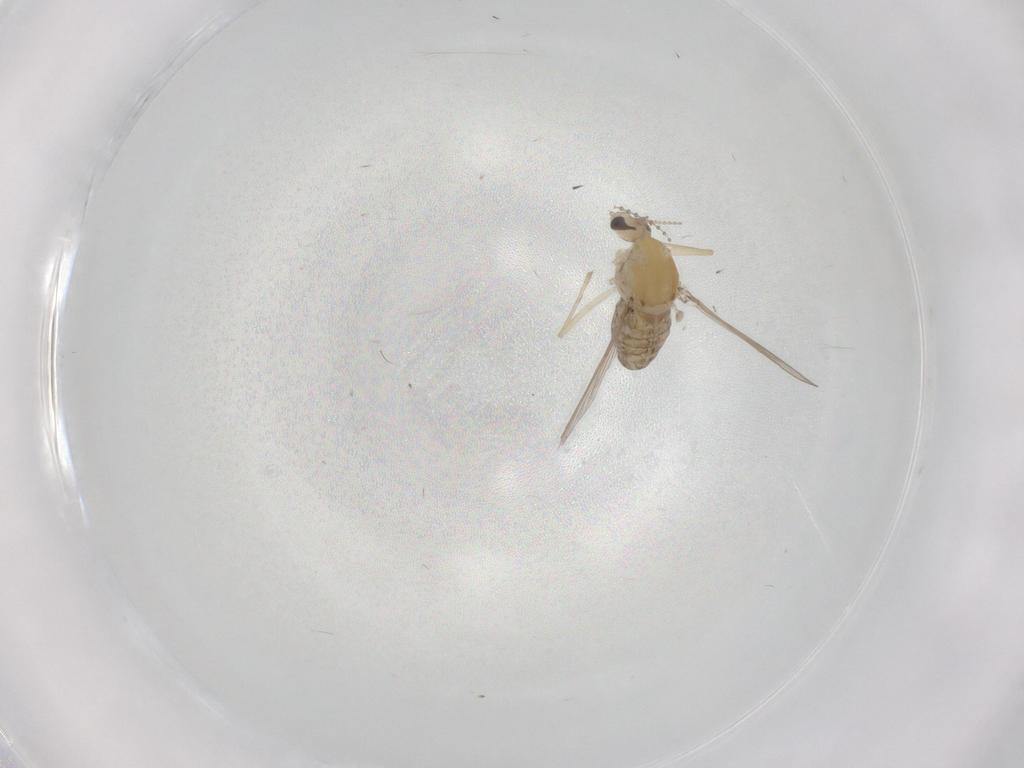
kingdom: Animalia
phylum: Arthropoda
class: Insecta
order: Diptera
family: Chironomidae
